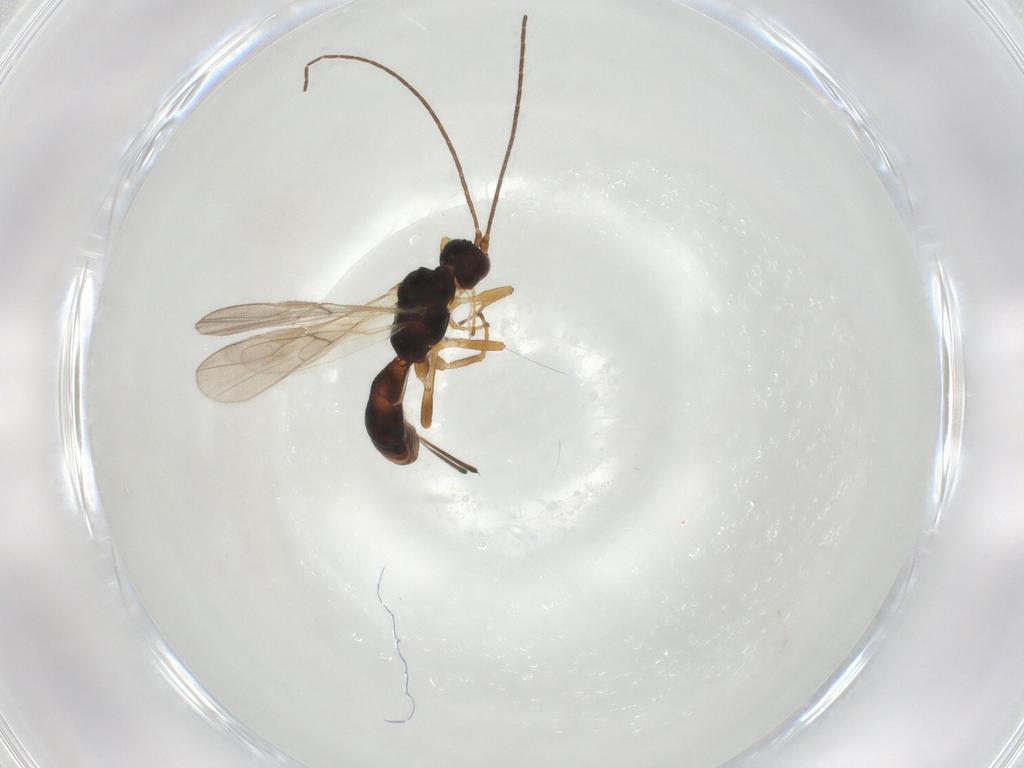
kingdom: Animalia
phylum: Arthropoda
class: Insecta
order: Hymenoptera
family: Braconidae
